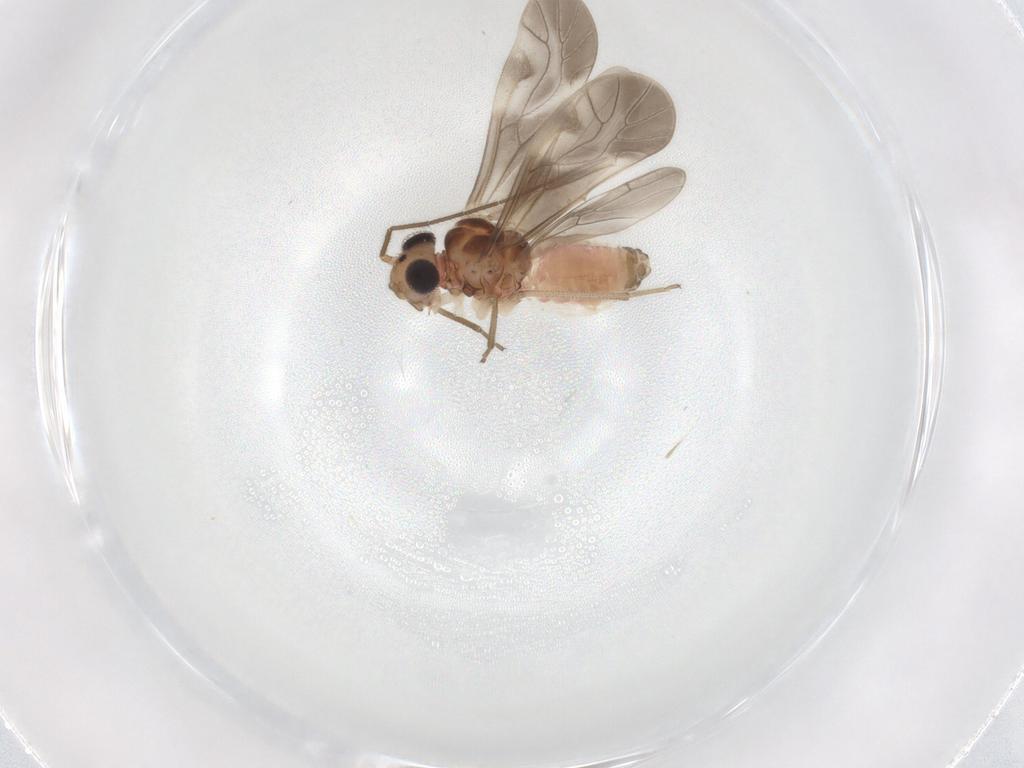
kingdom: Animalia
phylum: Arthropoda
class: Insecta
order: Psocodea
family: Caeciliusidae
